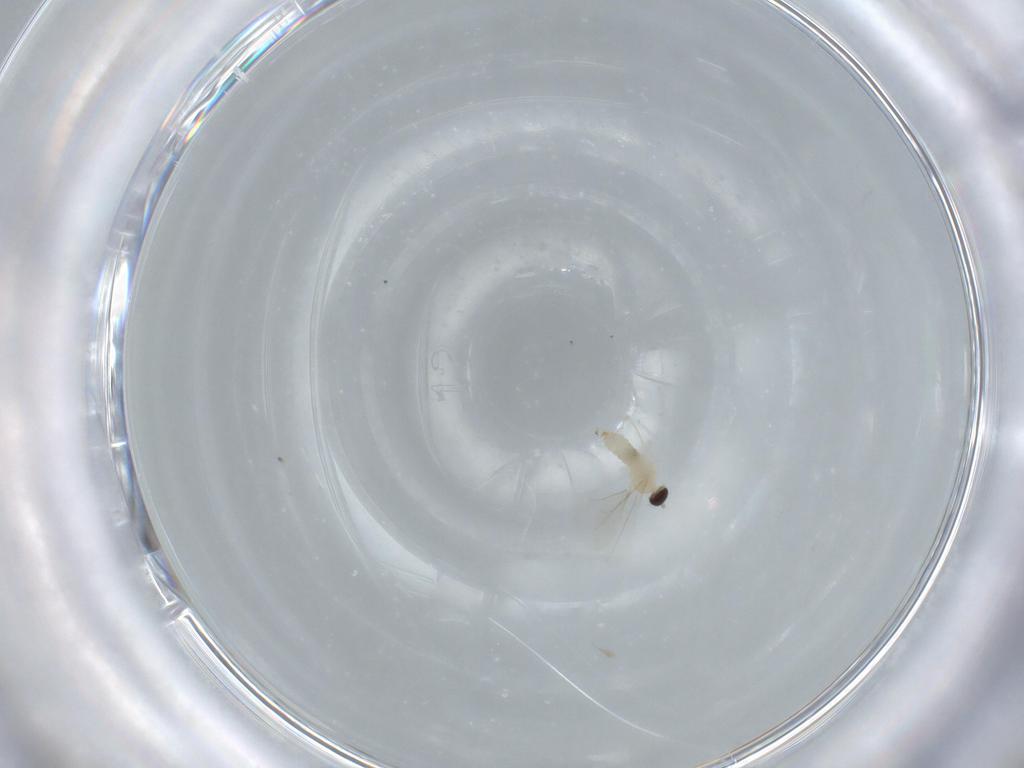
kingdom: Animalia
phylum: Arthropoda
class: Insecta
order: Diptera
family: Cecidomyiidae
